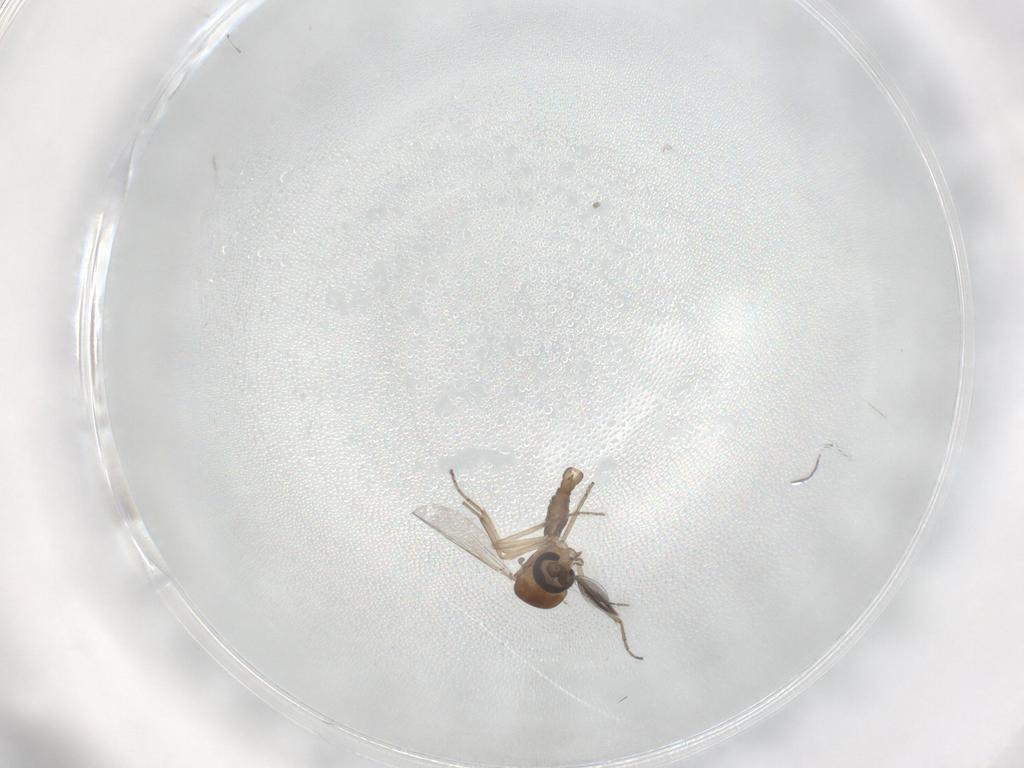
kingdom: Animalia
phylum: Arthropoda
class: Insecta
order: Diptera
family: Ceratopogonidae
